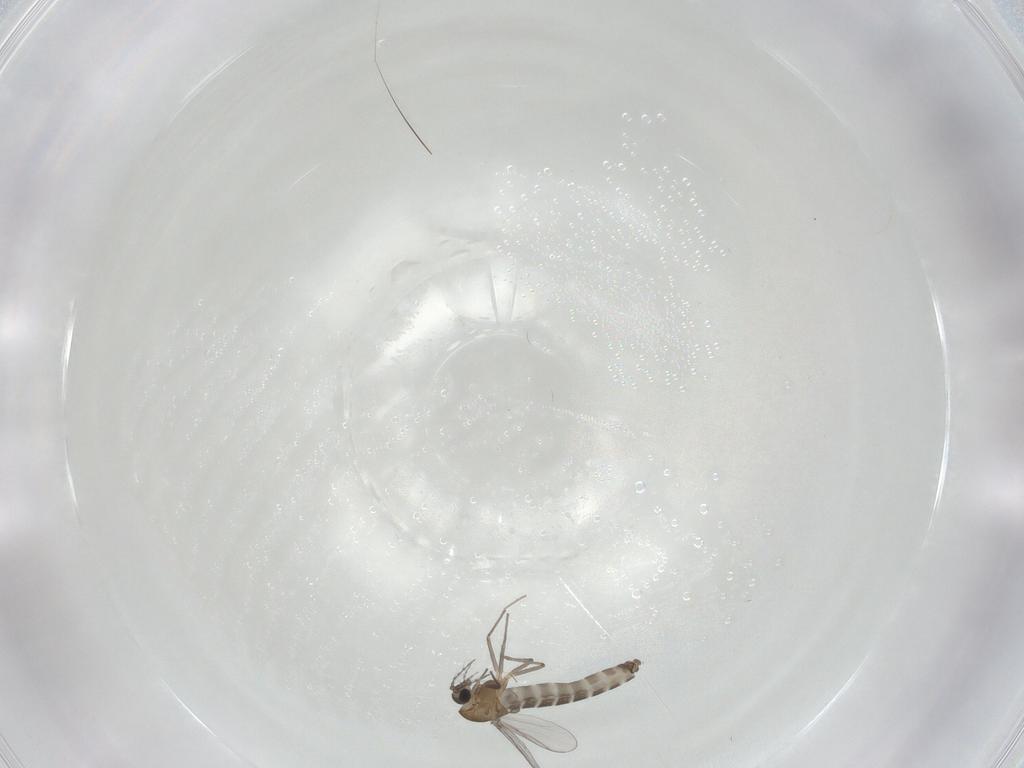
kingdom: Animalia
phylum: Arthropoda
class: Insecta
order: Diptera
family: Chironomidae
